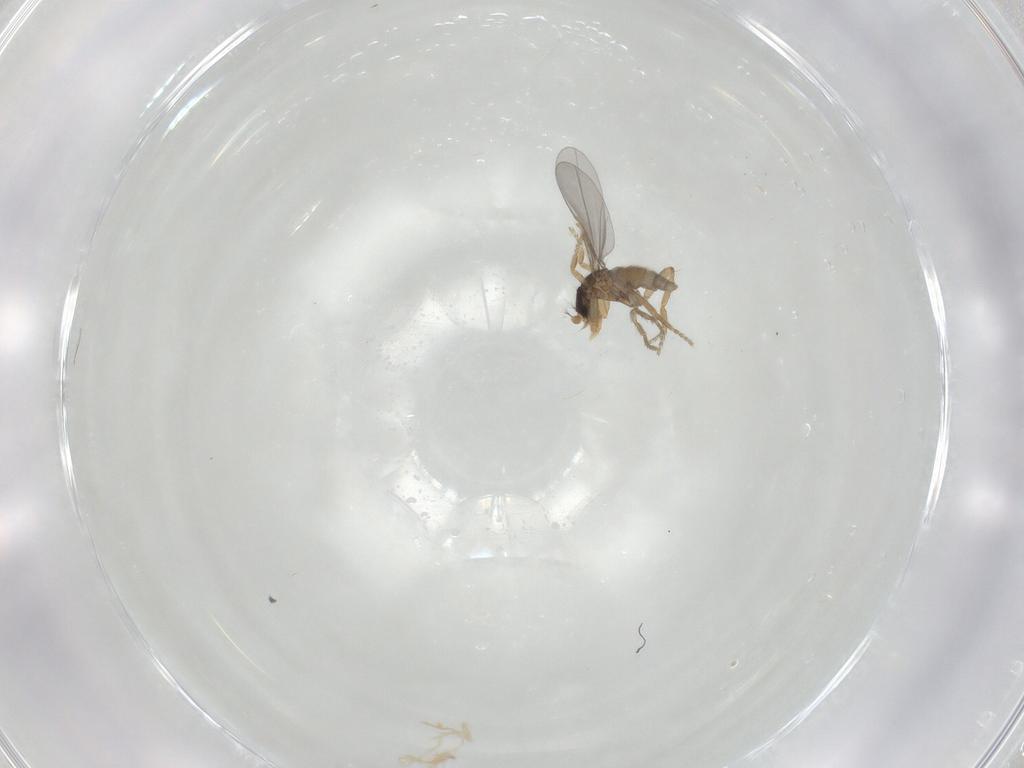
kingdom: Animalia
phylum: Arthropoda
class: Insecta
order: Diptera
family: Phoridae
